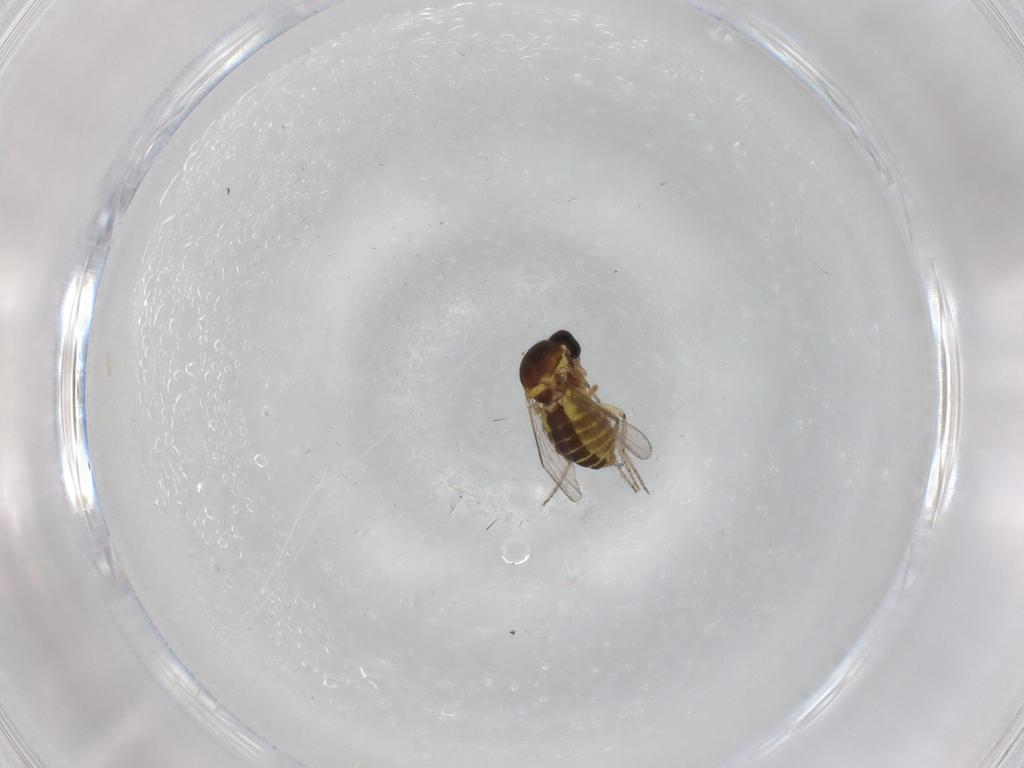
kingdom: Animalia
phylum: Arthropoda
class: Insecta
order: Diptera
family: Ceratopogonidae
